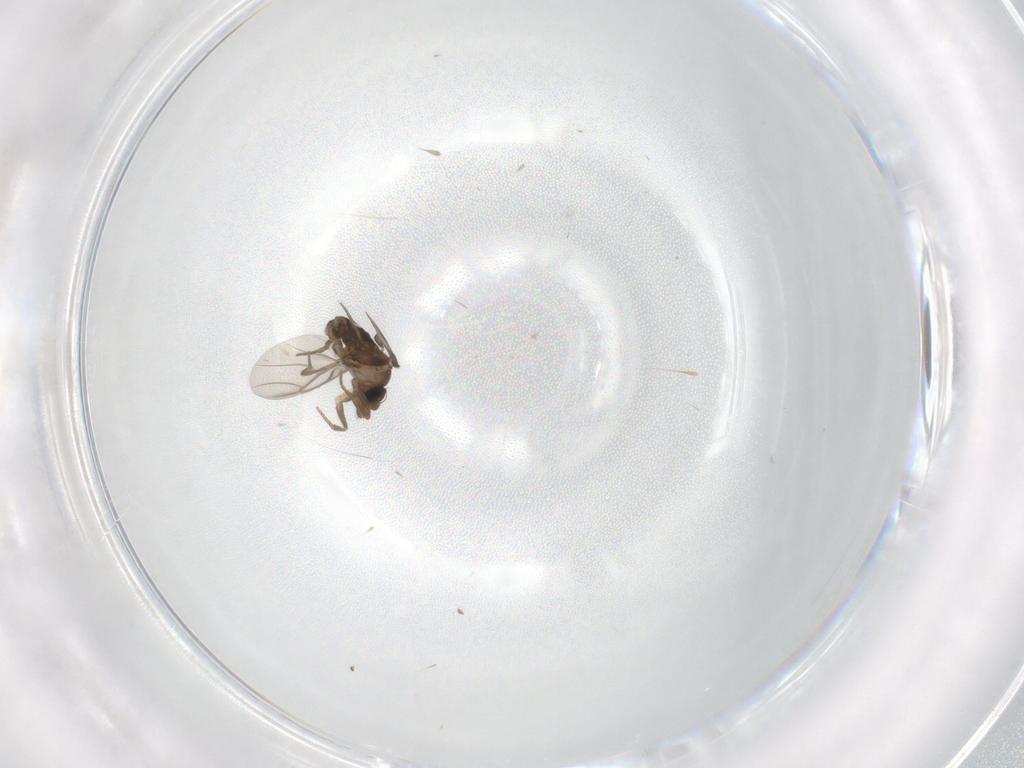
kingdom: Animalia
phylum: Arthropoda
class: Insecta
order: Diptera
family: Phoridae
